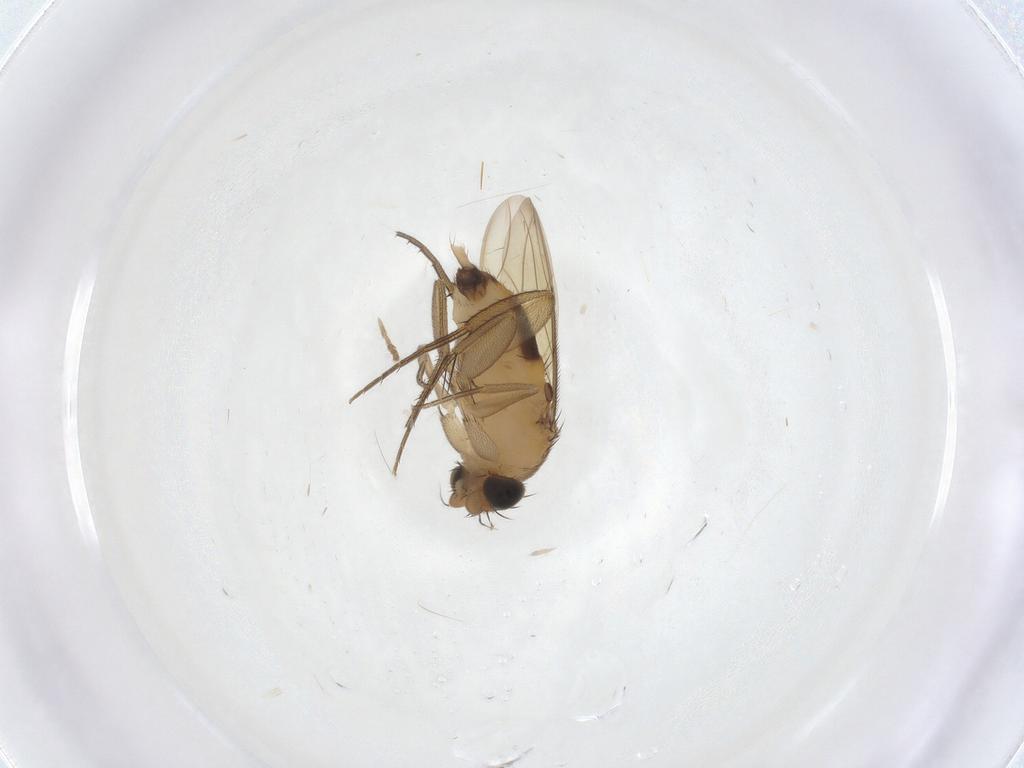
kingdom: Animalia
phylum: Arthropoda
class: Insecta
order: Diptera
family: Phoridae
